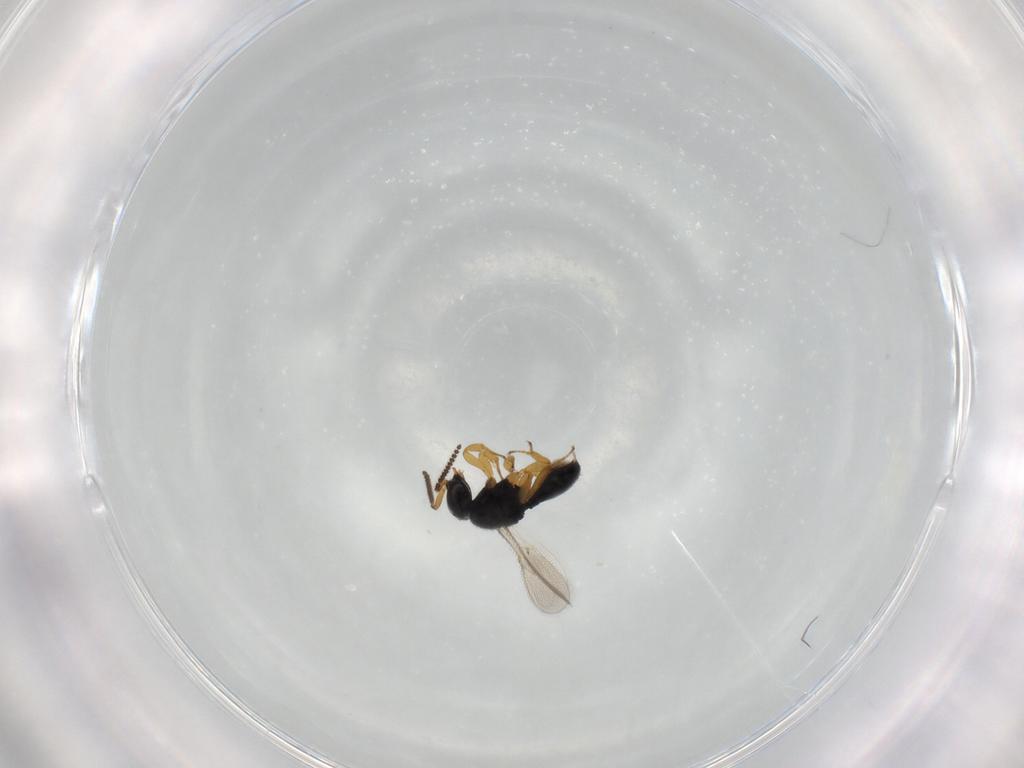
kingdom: Animalia
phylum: Arthropoda
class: Insecta
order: Hymenoptera
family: Scelionidae
